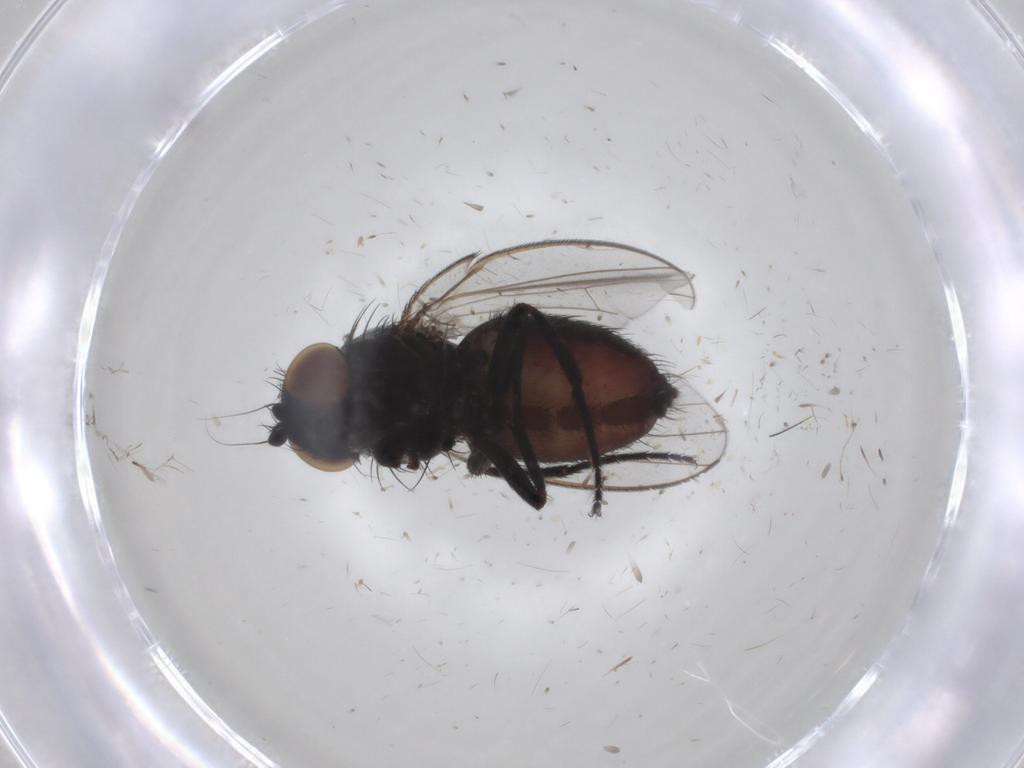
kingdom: Animalia
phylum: Arthropoda
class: Insecta
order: Diptera
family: Milichiidae
